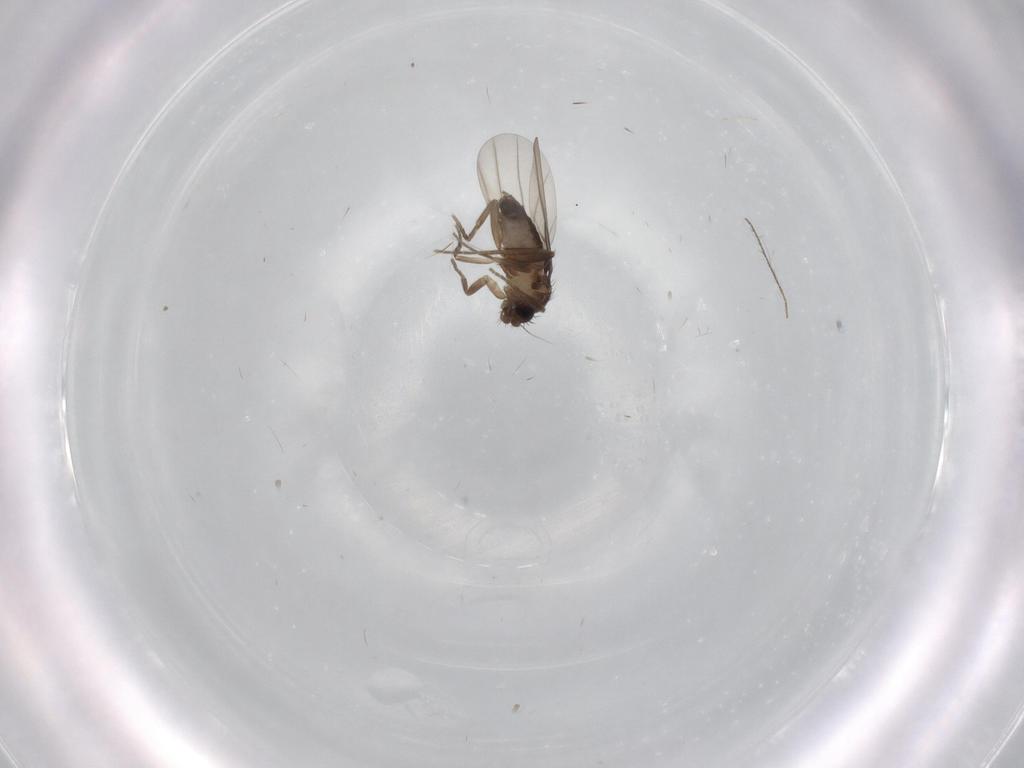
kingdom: Animalia
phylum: Arthropoda
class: Insecta
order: Diptera
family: Phoridae
